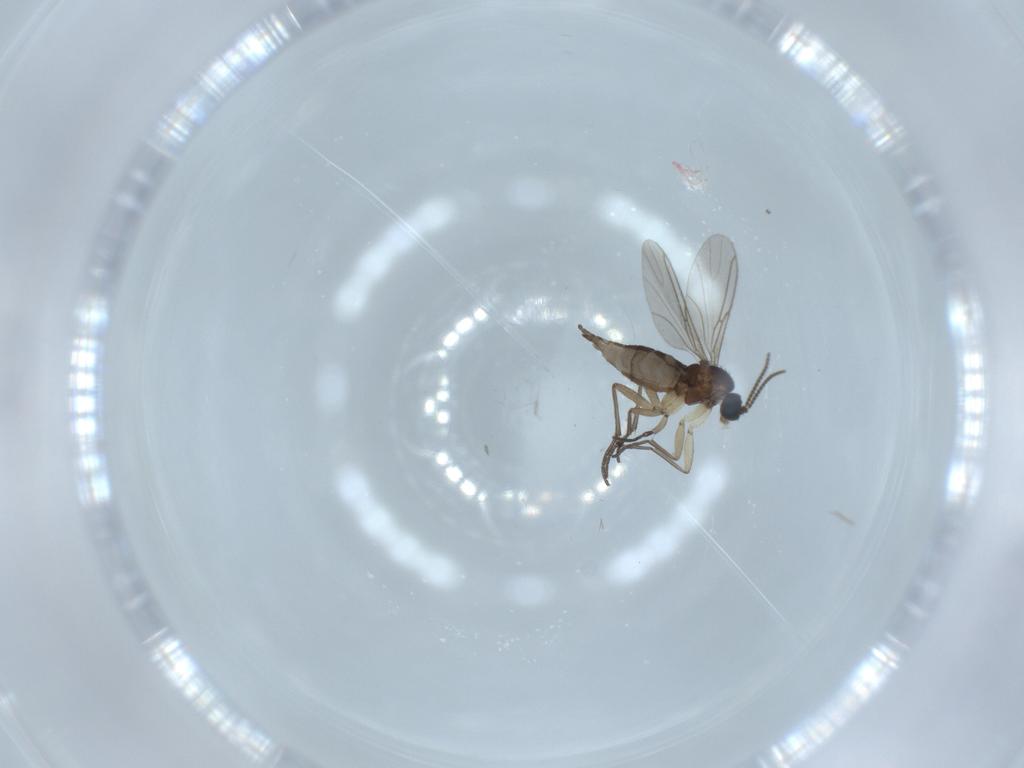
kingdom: Animalia
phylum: Arthropoda
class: Insecta
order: Diptera
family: Sciaridae
